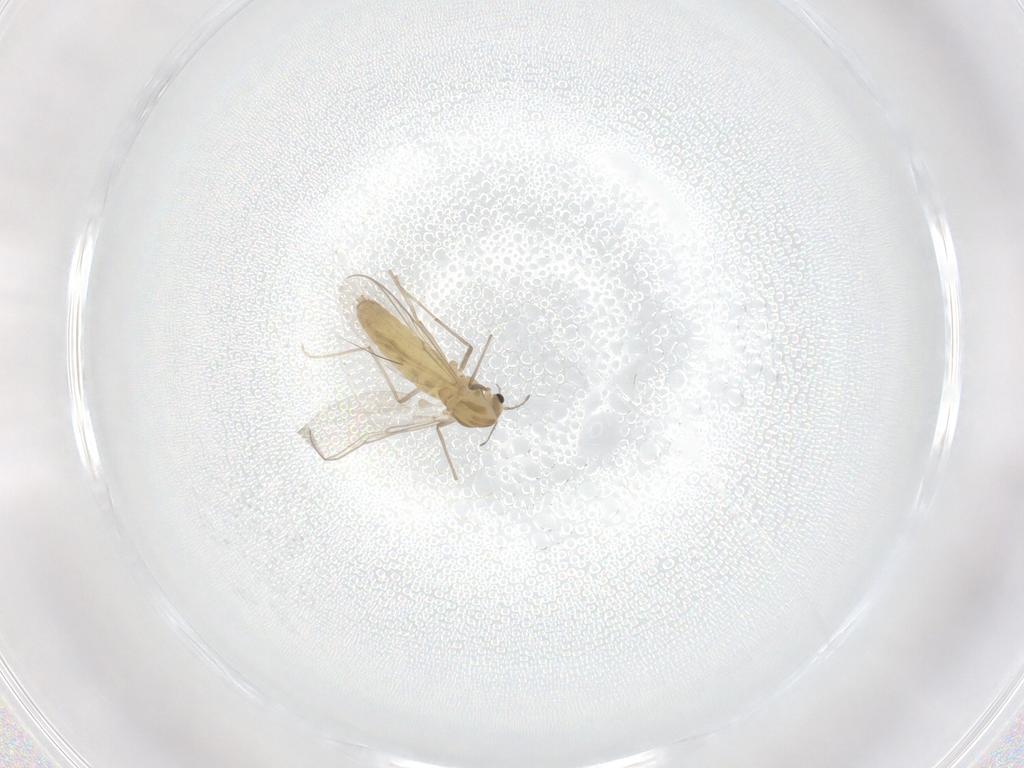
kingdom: Animalia
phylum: Arthropoda
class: Insecta
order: Diptera
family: Chironomidae
